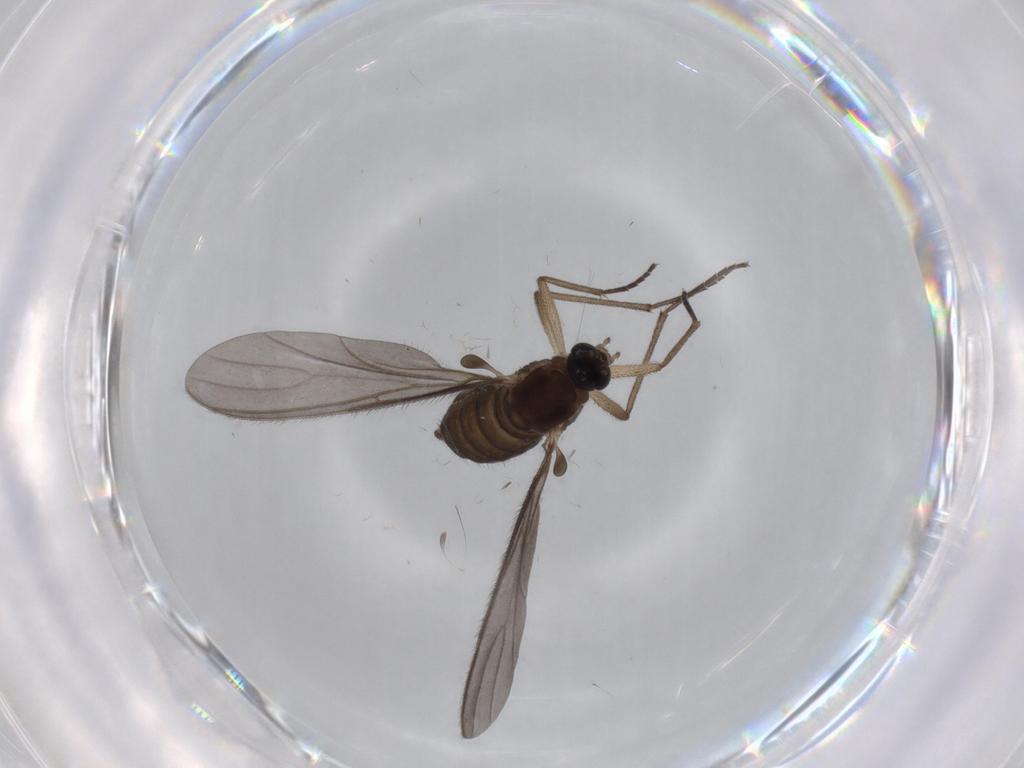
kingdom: Animalia
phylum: Arthropoda
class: Insecta
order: Diptera
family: Sciaridae
